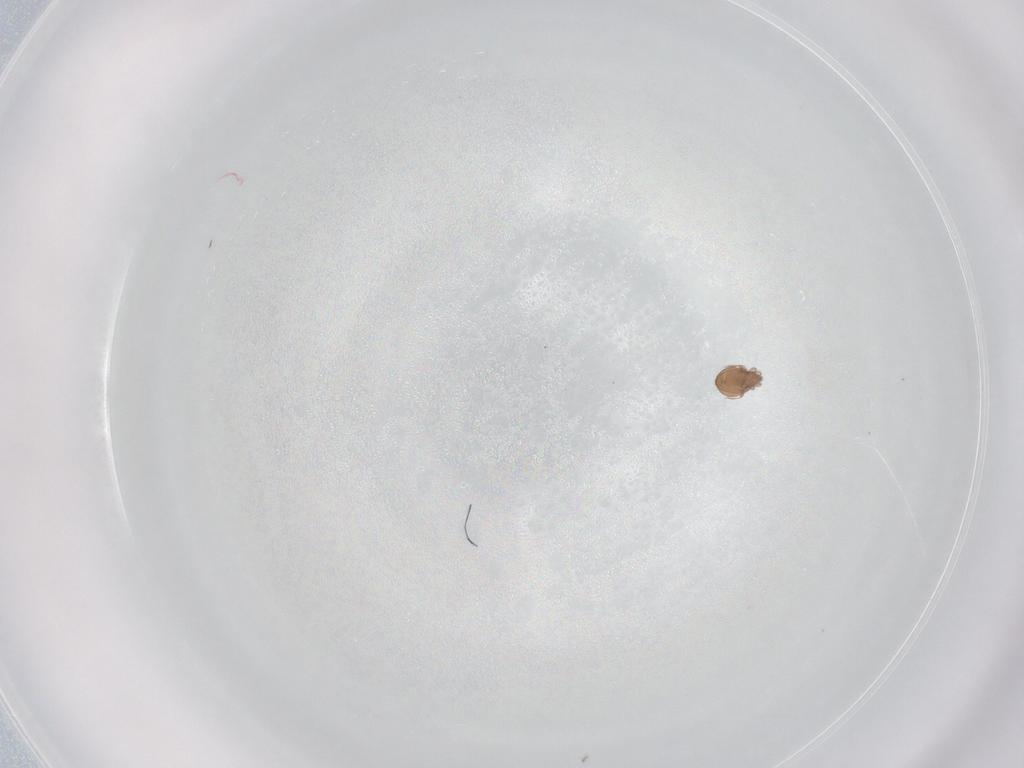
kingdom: Animalia
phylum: Arthropoda
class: Arachnida
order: Sarcoptiformes
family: Oribatulidae
